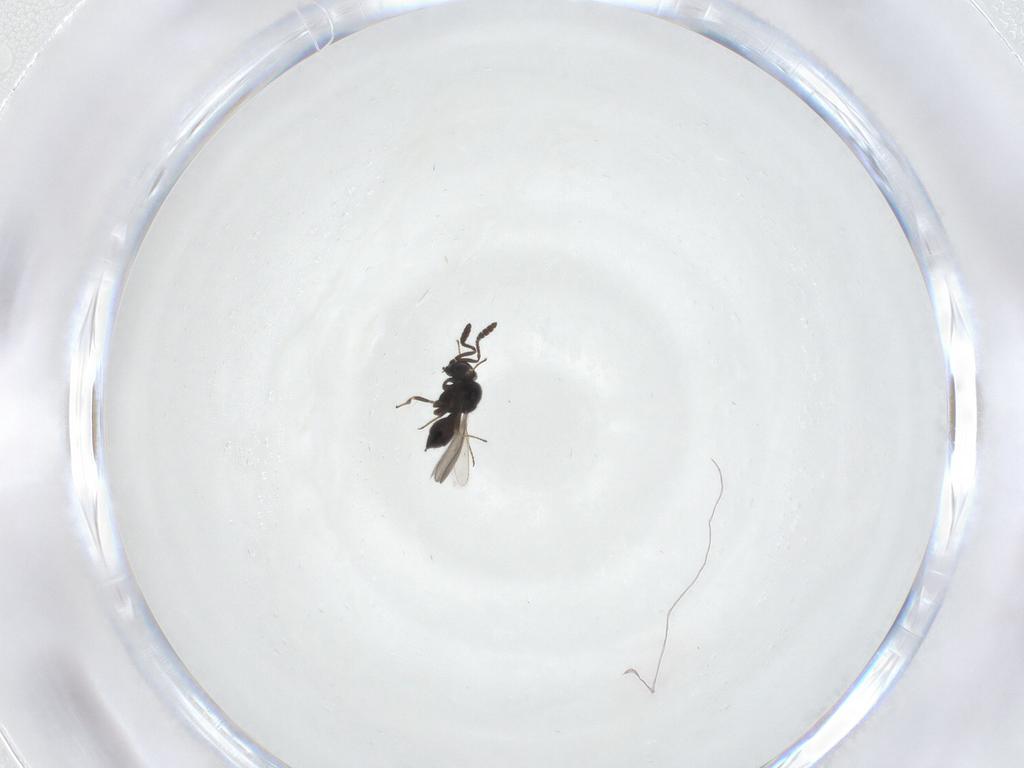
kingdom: Animalia
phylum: Arthropoda
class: Insecta
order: Hymenoptera
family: Scelionidae
